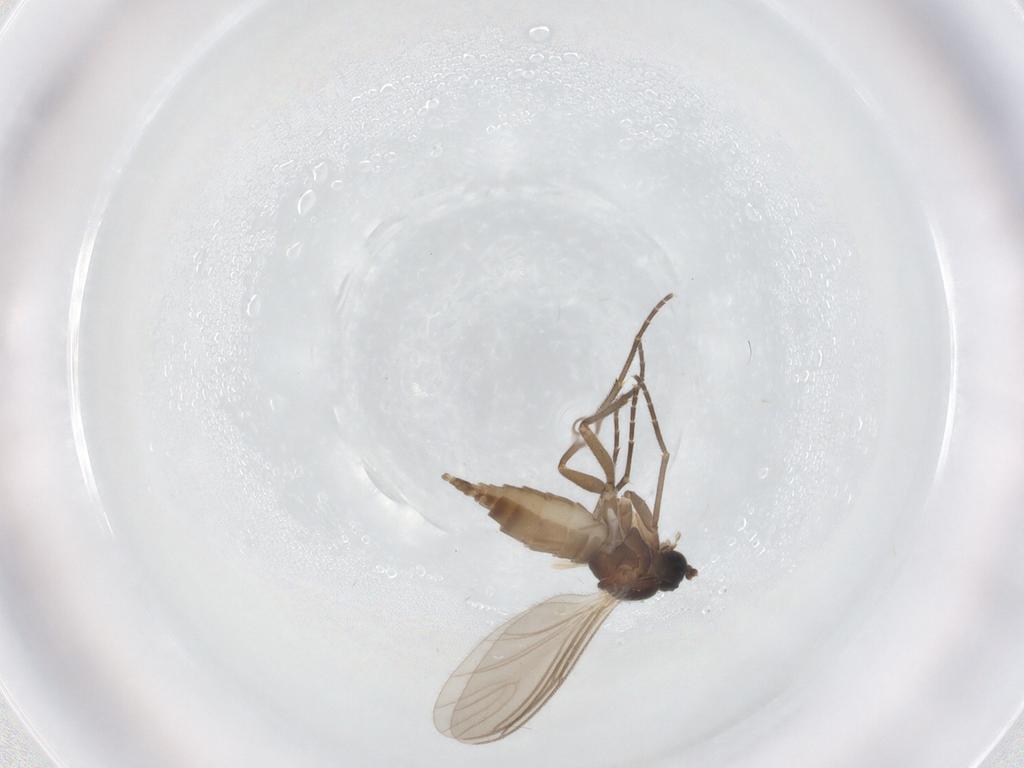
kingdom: Animalia
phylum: Arthropoda
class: Insecta
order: Diptera
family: Sciaridae
